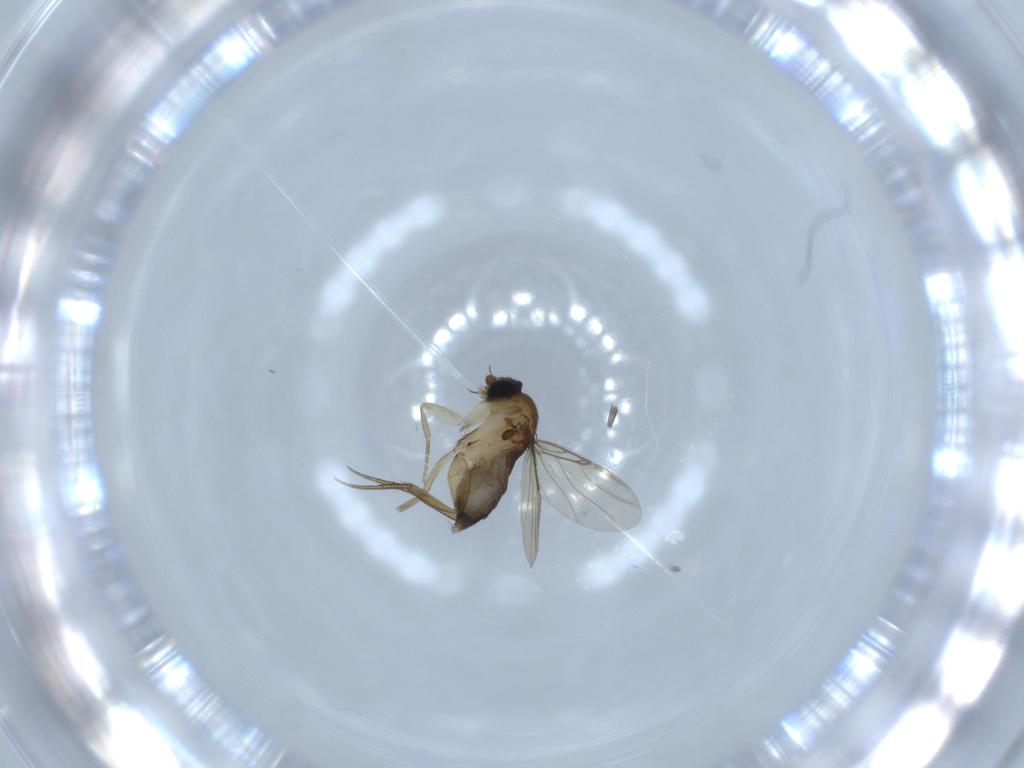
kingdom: Animalia
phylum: Arthropoda
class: Insecta
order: Diptera
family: Phoridae
